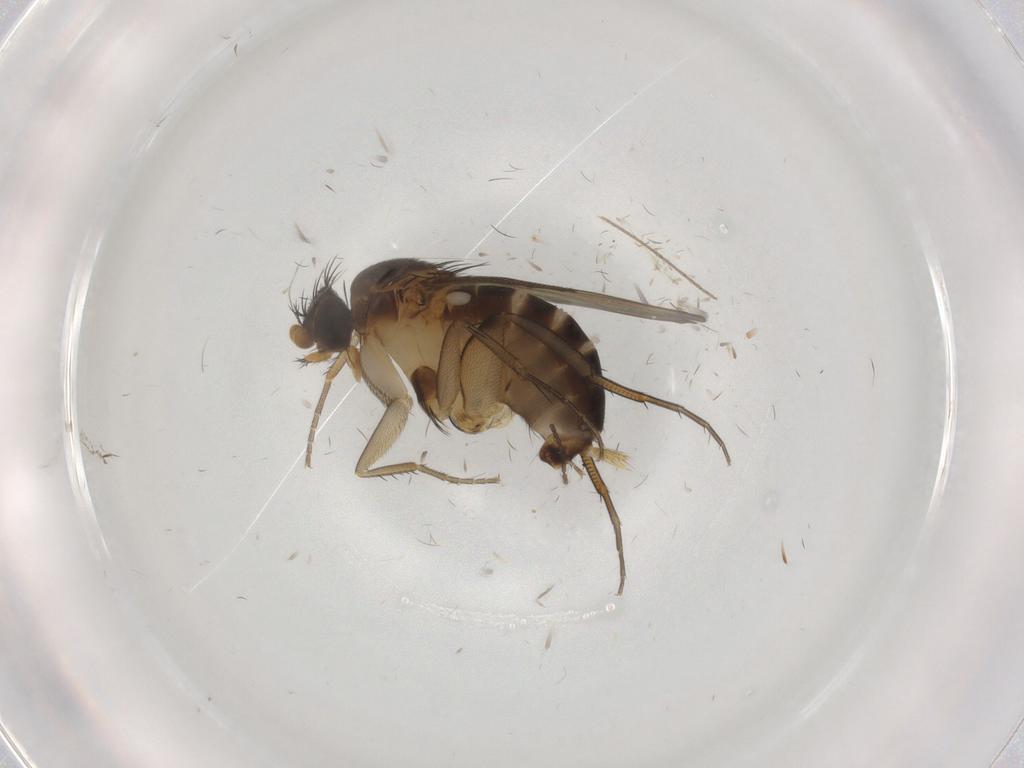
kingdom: Animalia
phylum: Arthropoda
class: Insecta
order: Diptera
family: Phoridae
